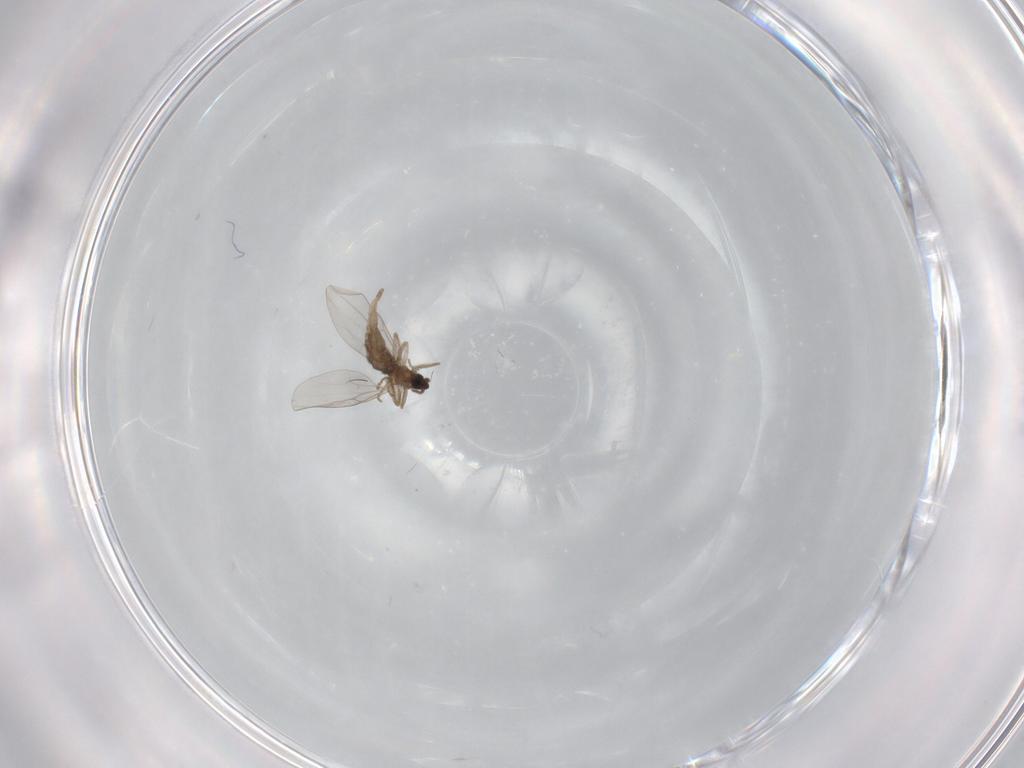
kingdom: Animalia
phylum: Arthropoda
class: Insecta
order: Diptera
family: Cecidomyiidae
